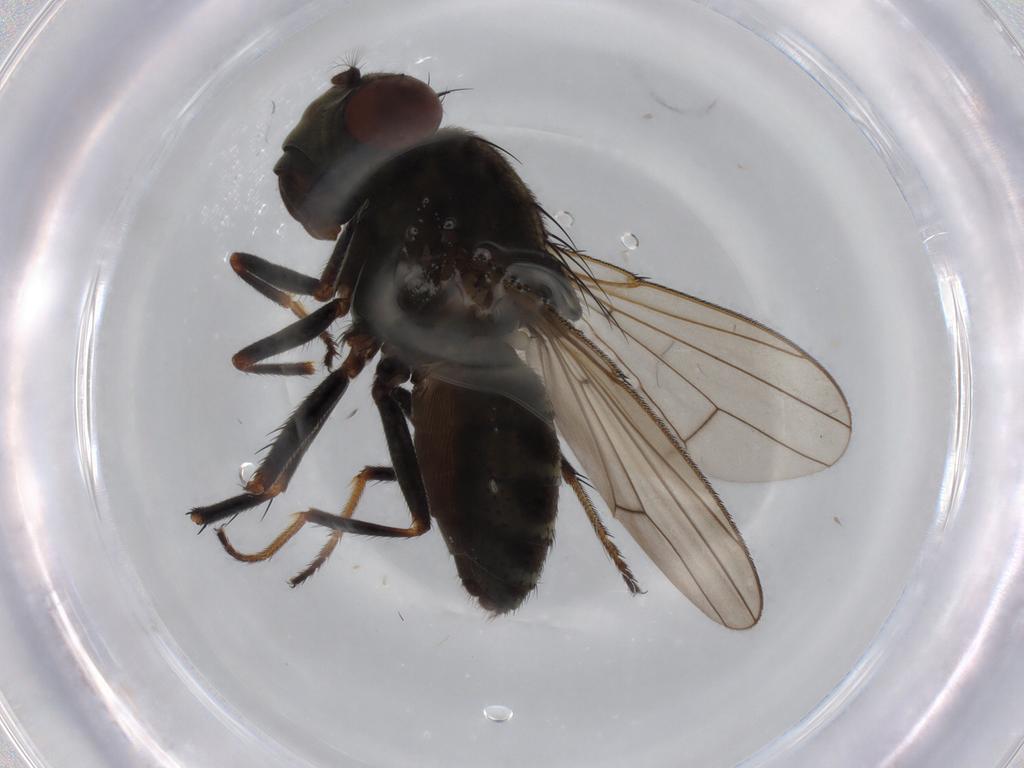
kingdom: Animalia
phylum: Arthropoda
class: Insecta
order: Diptera
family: Ephydridae
